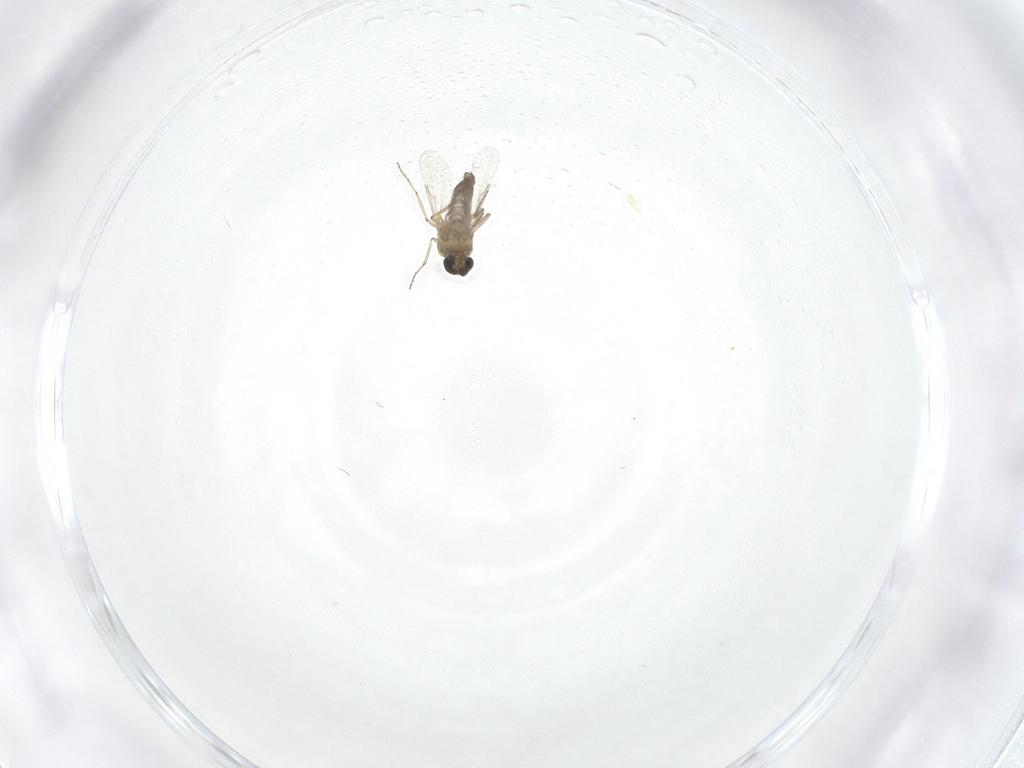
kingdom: Animalia
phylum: Arthropoda
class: Insecta
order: Diptera
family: Ceratopogonidae
